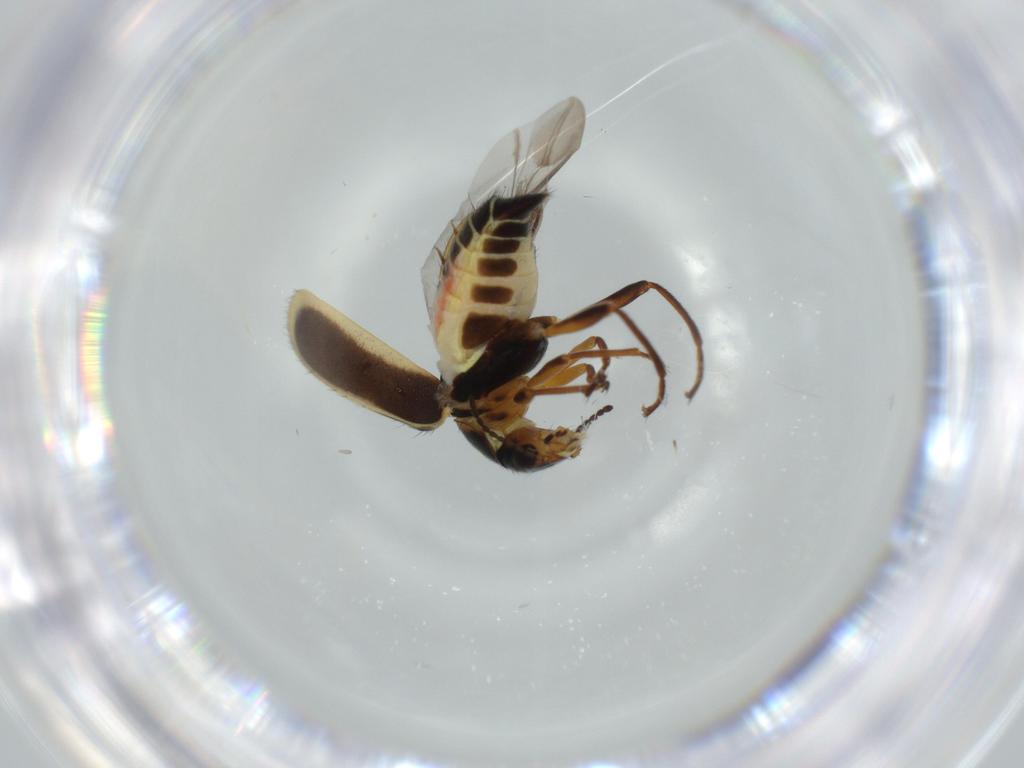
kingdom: Animalia
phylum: Arthropoda
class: Insecta
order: Coleoptera
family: Melyridae
